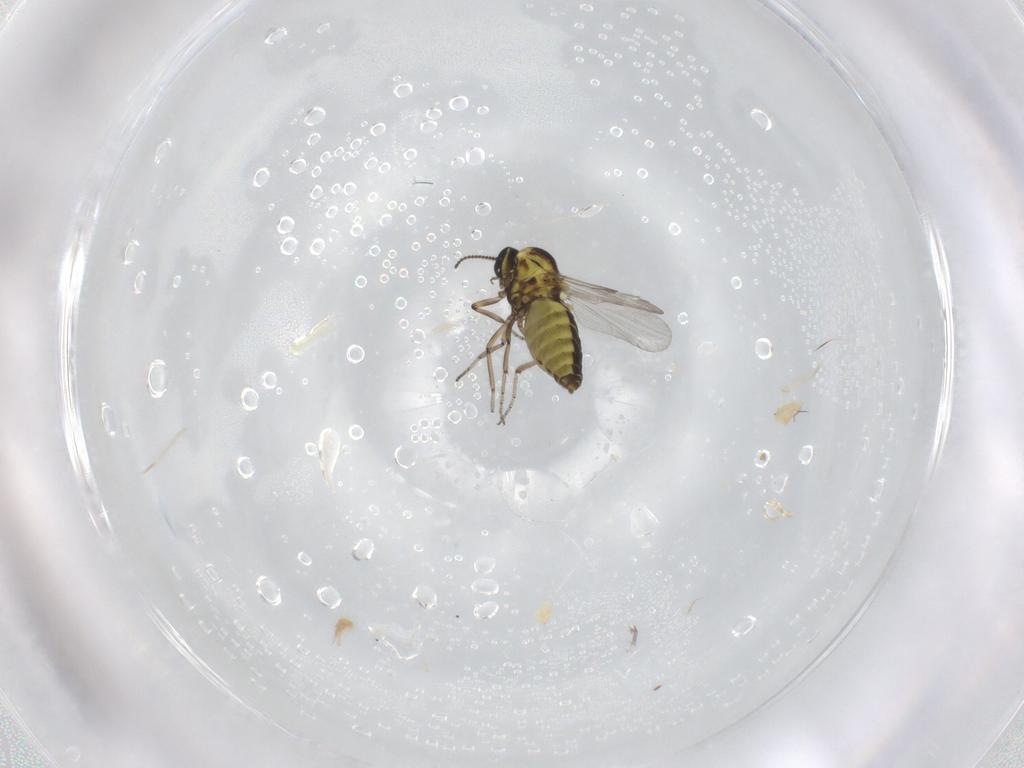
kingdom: Animalia
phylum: Arthropoda
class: Insecta
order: Diptera
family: Ceratopogonidae
